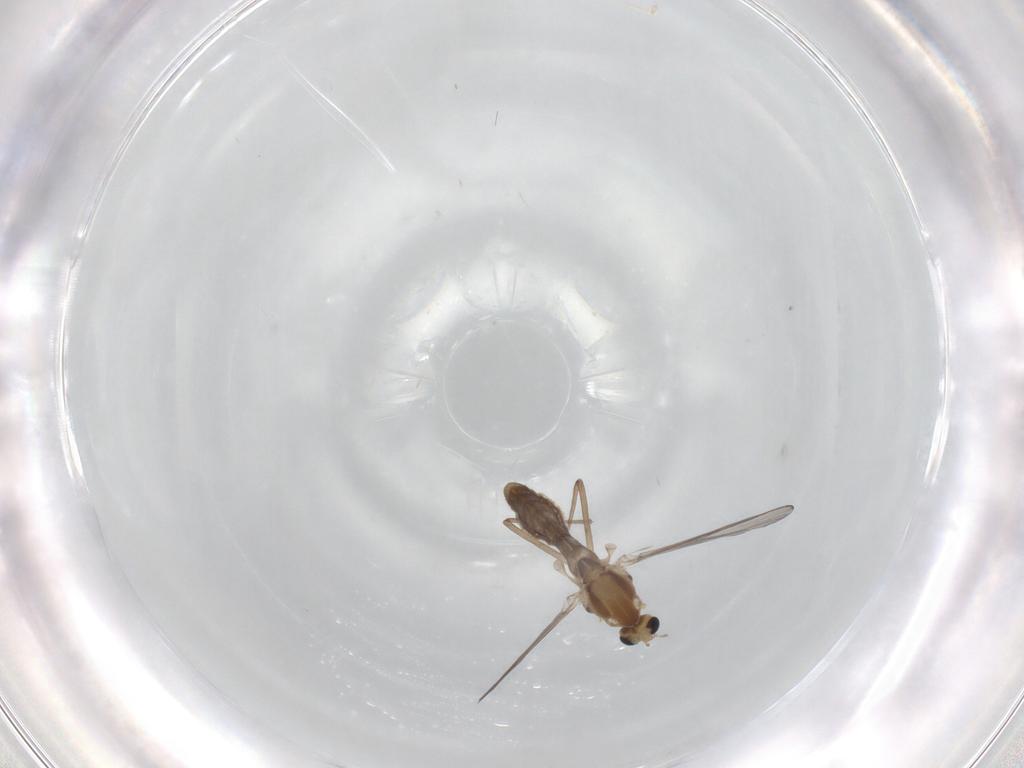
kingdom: Animalia
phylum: Arthropoda
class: Insecta
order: Diptera
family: Chironomidae
